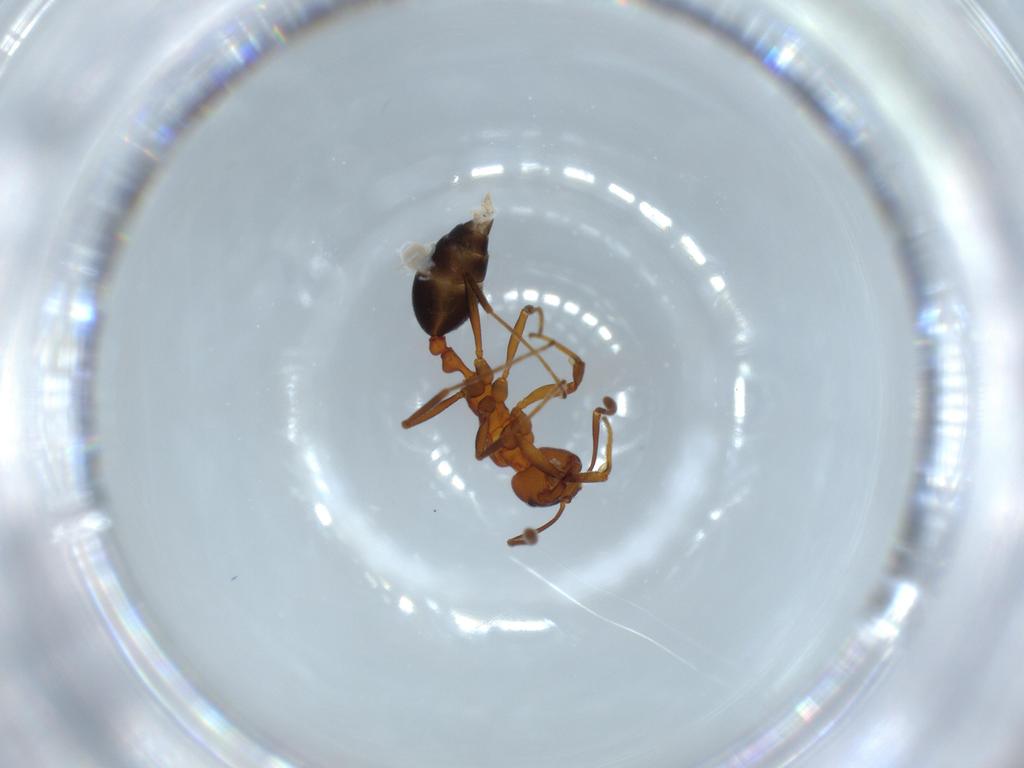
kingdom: Animalia
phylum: Arthropoda
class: Insecta
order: Hymenoptera
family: Formicidae
